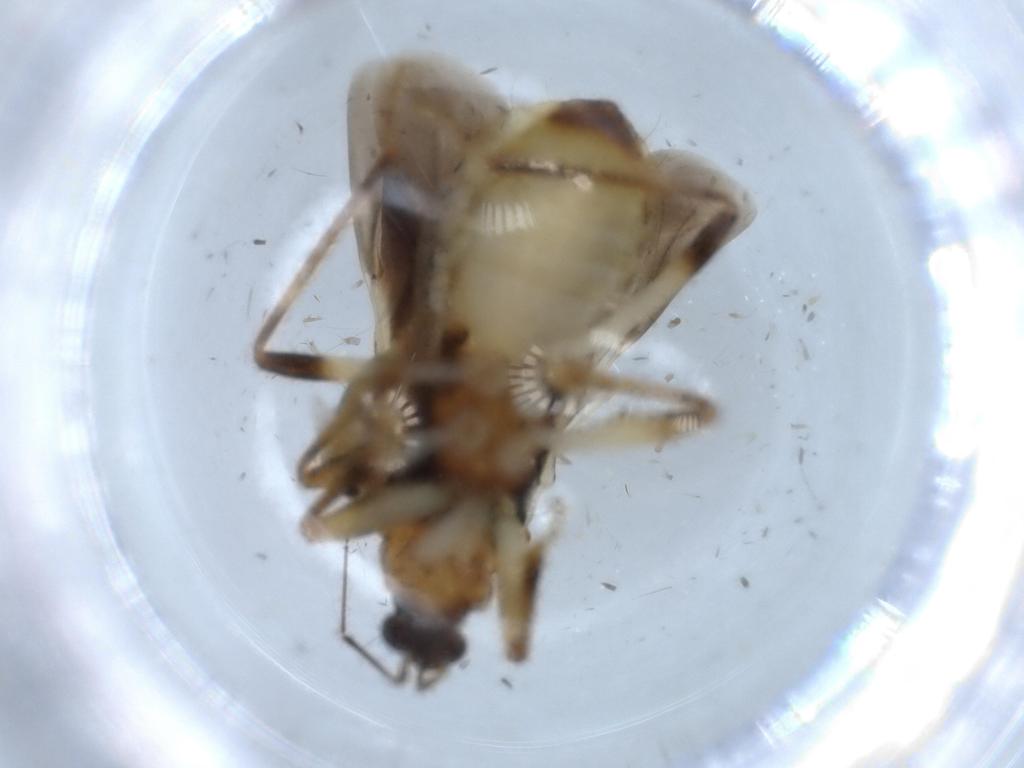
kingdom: Animalia
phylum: Arthropoda
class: Insecta
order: Hemiptera
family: Nabidae
